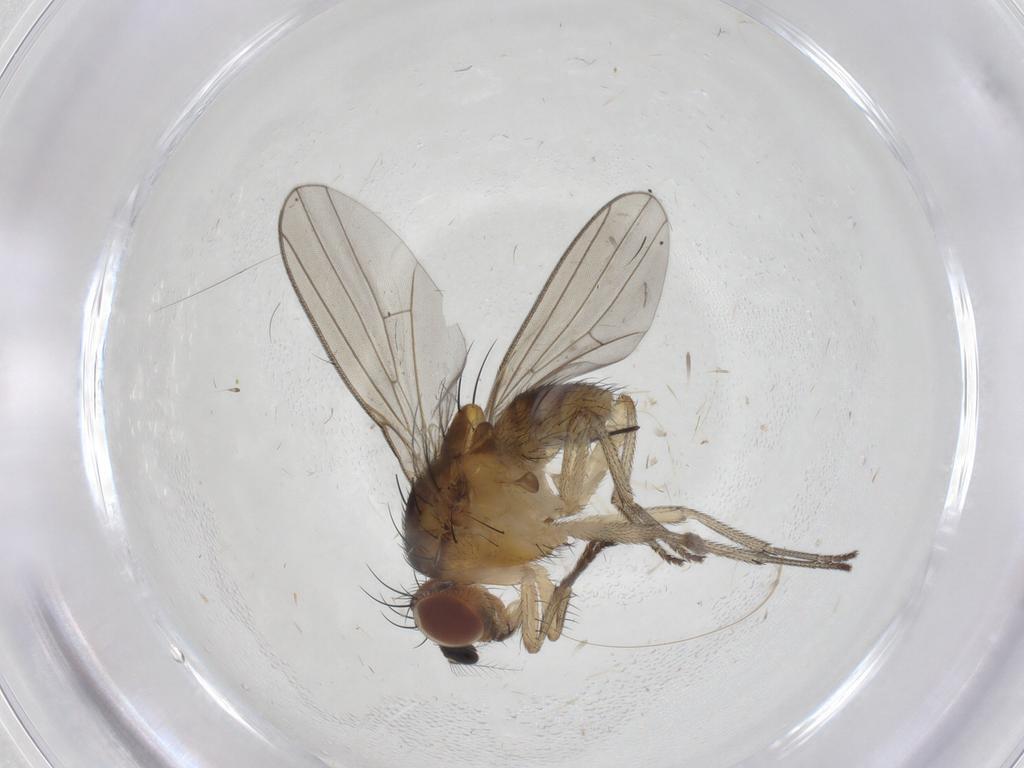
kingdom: Animalia
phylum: Arthropoda
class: Insecta
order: Diptera
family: Chironomidae
